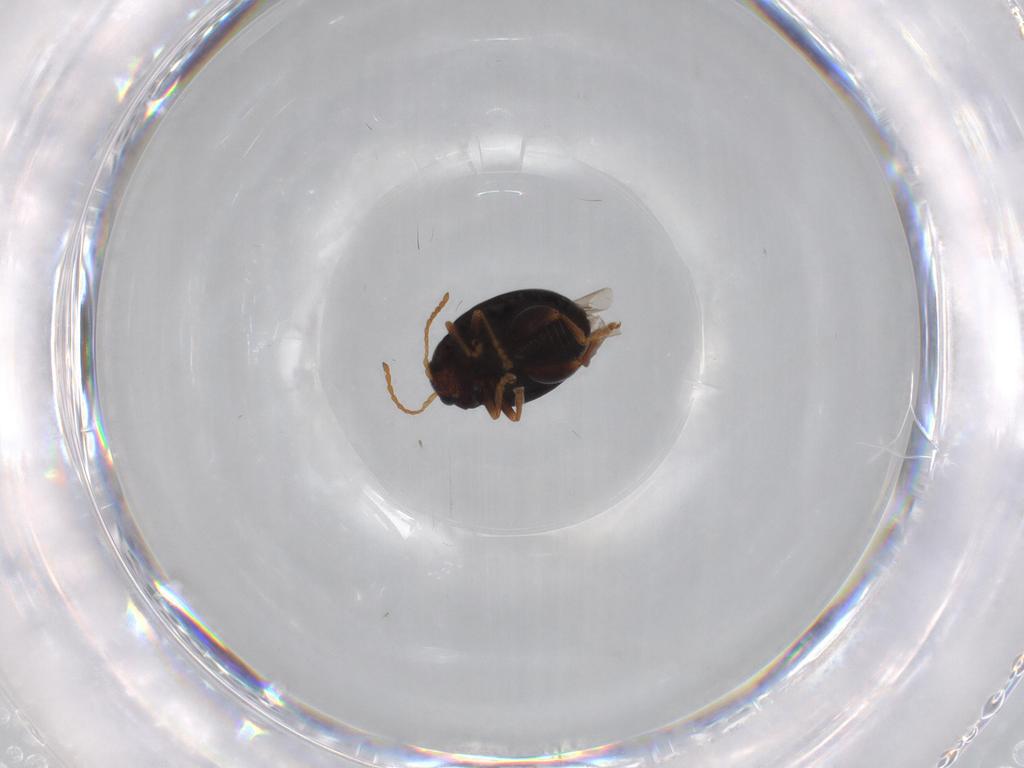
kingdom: Animalia
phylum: Arthropoda
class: Insecta
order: Coleoptera
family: Chrysomelidae
